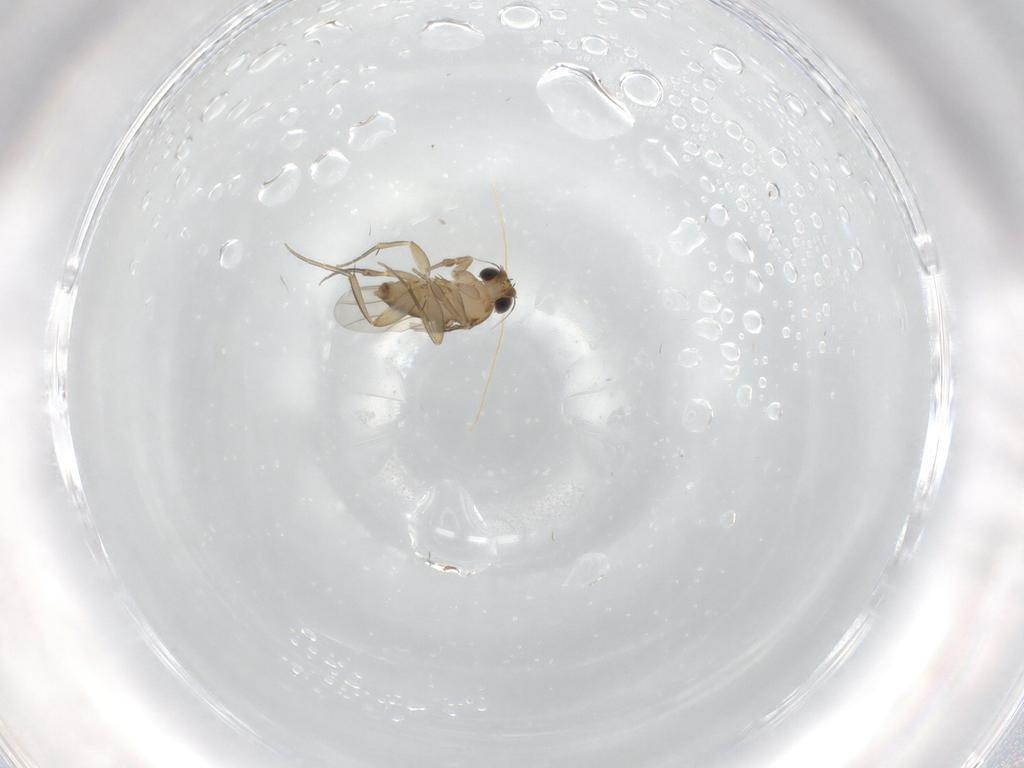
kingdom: Animalia
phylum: Arthropoda
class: Insecta
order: Diptera
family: Phoridae
